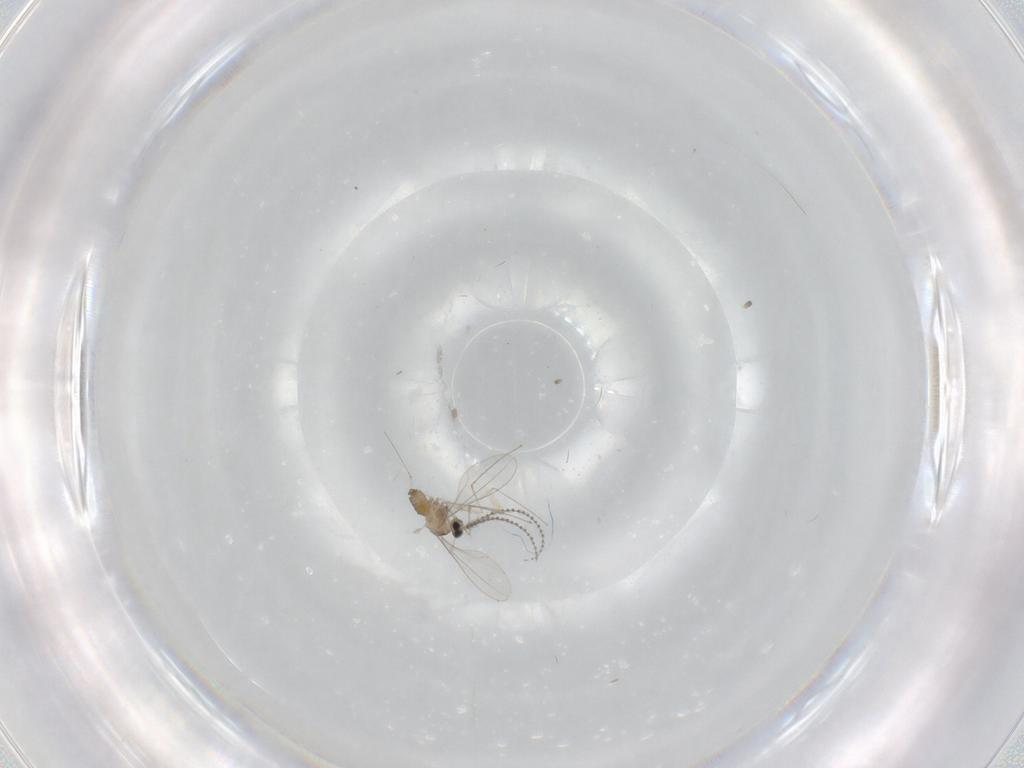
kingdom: Animalia
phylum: Arthropoda
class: Insecta
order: Diptera
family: Cecidomyiidae
